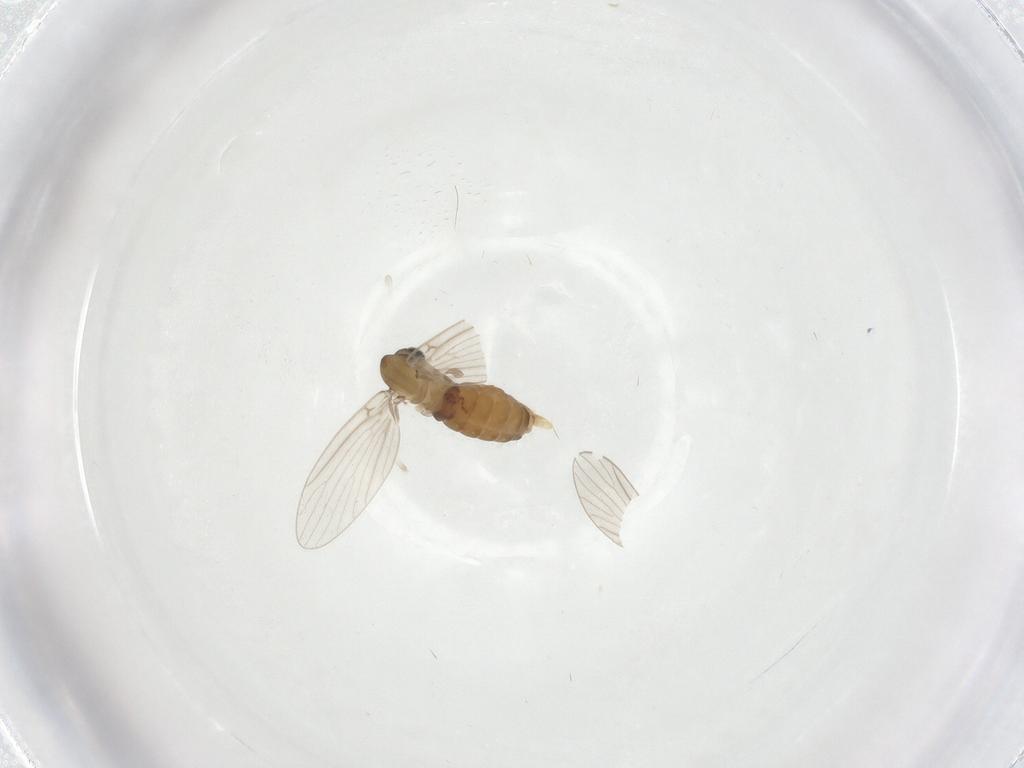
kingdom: Animalia
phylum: Arthropoda
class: Insecta
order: Diptera
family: Psychodidae
